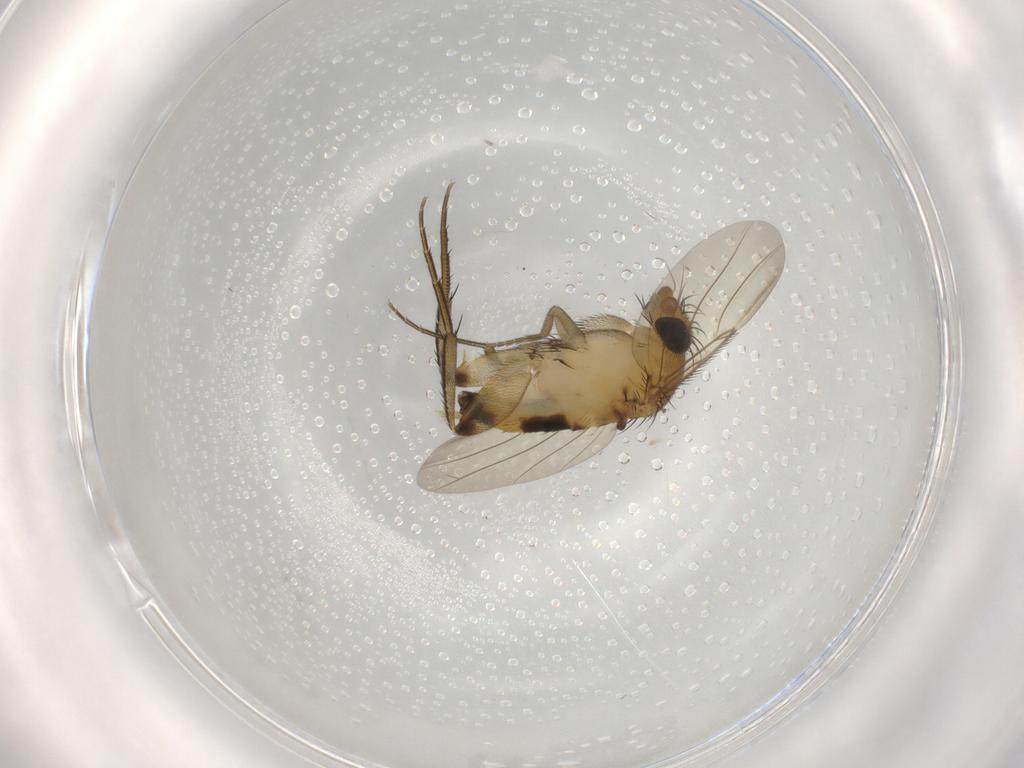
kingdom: Animalia
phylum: Arthropoda
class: Insecta
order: Diptera
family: Phoridae
